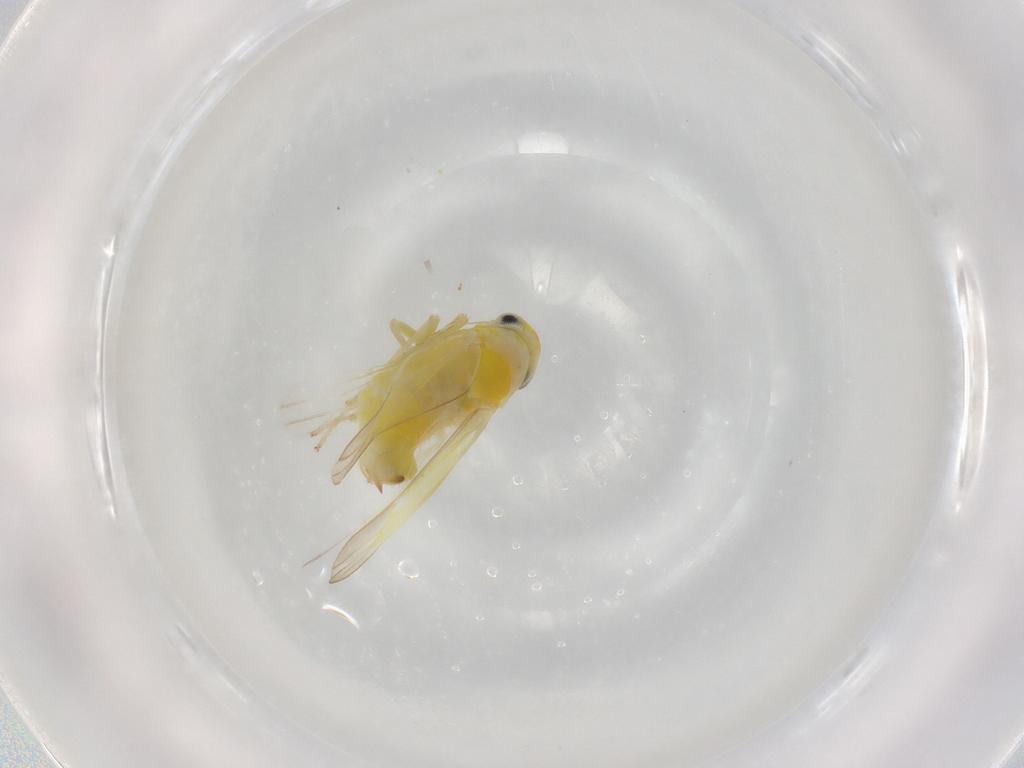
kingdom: Animalia
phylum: Arthropoda
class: Insecta
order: Hemiptera
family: Cicadellidae
